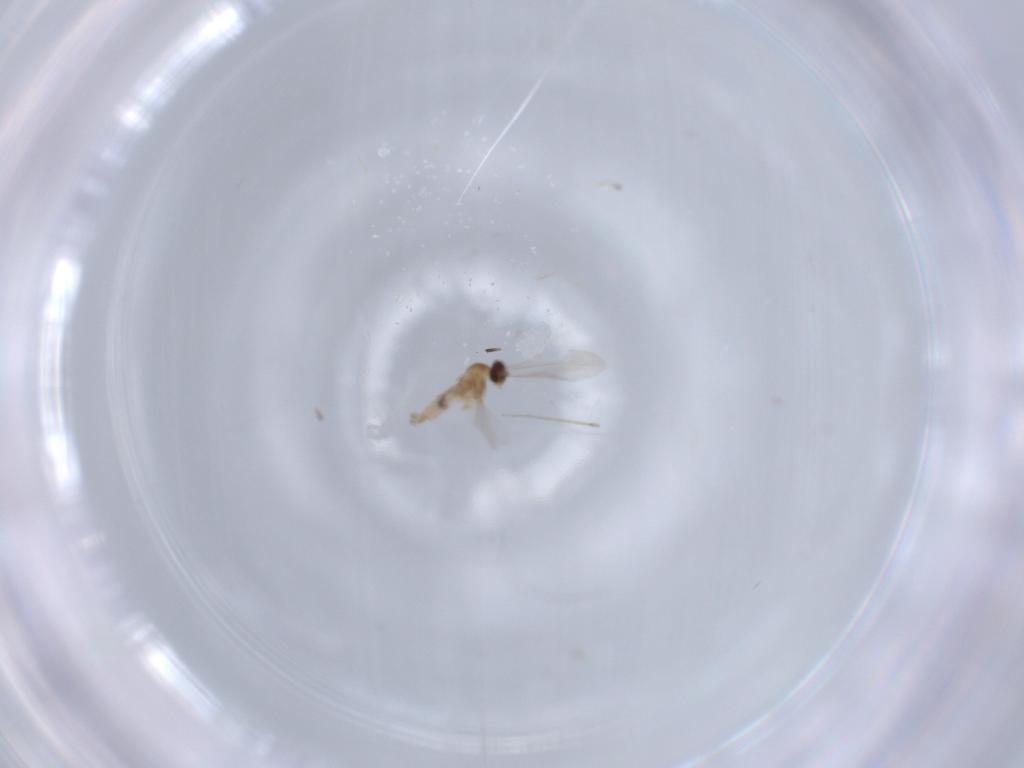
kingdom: Animalia
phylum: Arthropoda
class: Insecta
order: Diptera
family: Cecidomyiidae
